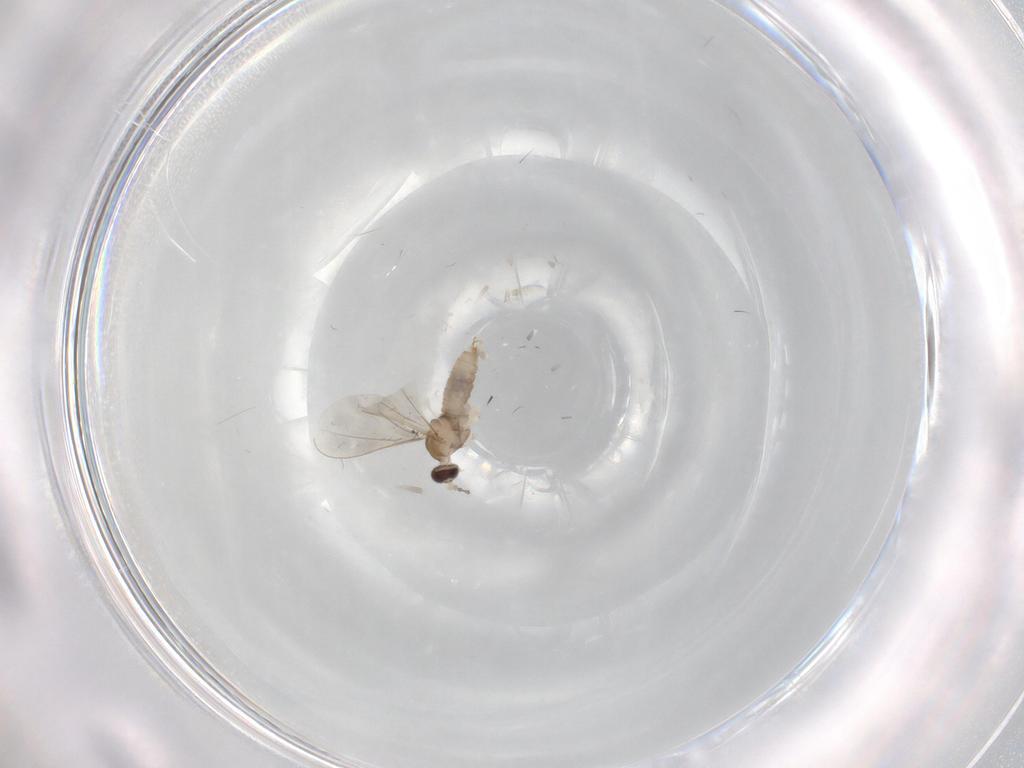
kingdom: Animalia
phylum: Arthropoda
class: Insecta
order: Diptera
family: Cecidomyiidae
